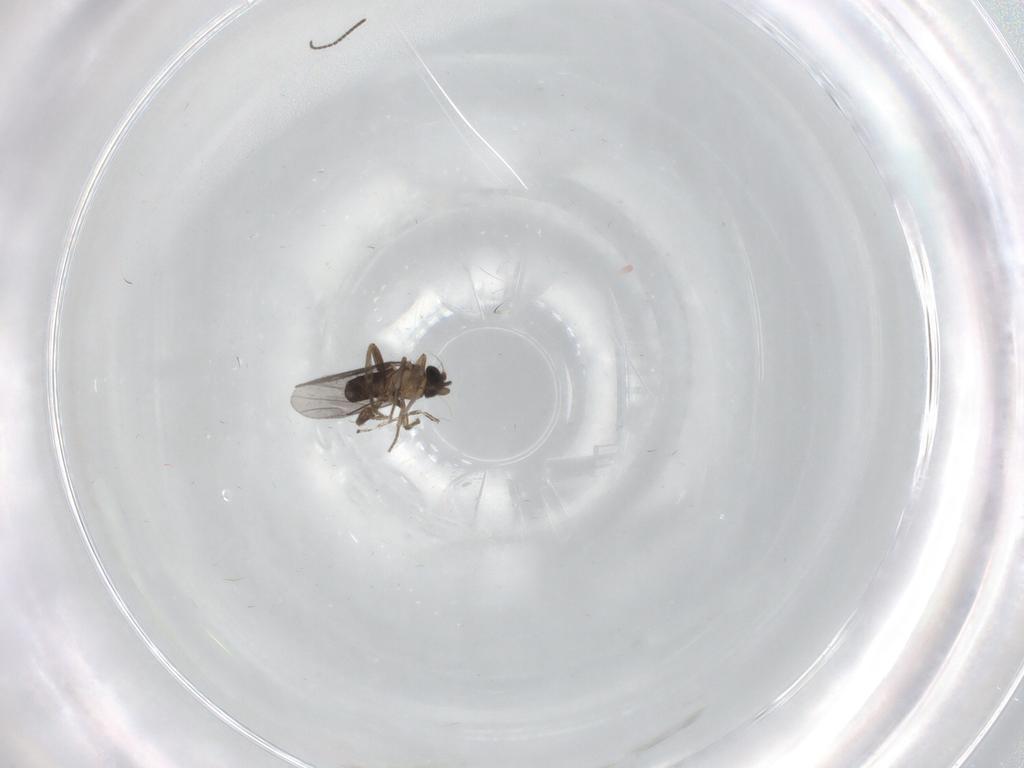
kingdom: Animalia
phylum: Arthropoda
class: Insecta
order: Diptera
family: Sciaridae
